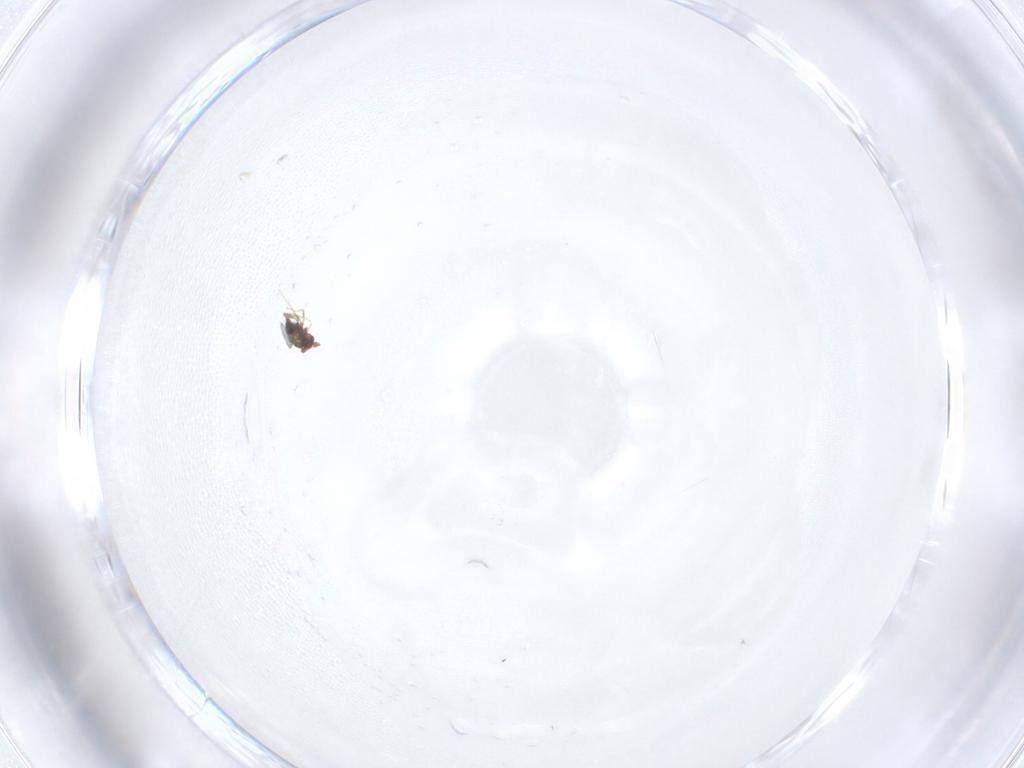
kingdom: Animalia
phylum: Arthropoda
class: Insecta
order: Hymenoptera
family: Trichogrammatidae
